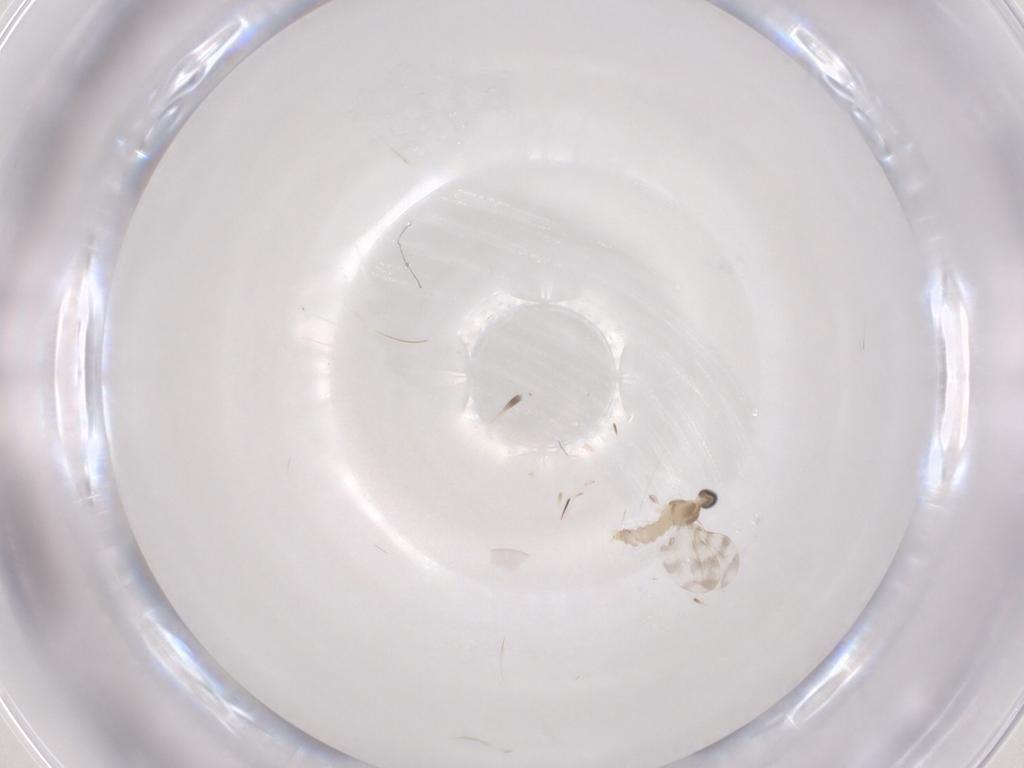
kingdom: Animalia
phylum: Arthropoda
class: Insecta
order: Diptera
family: Cecidomyiidae
